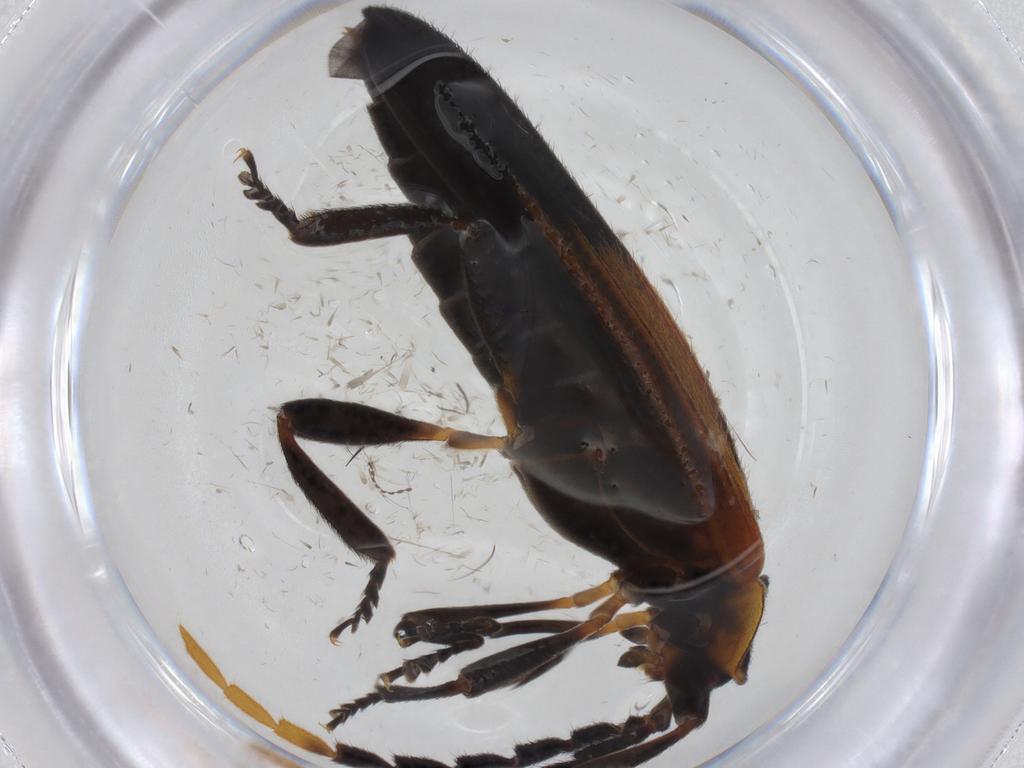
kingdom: Animalia
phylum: Arthropoda
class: Insecta
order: Coleoptera
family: Lycidae
